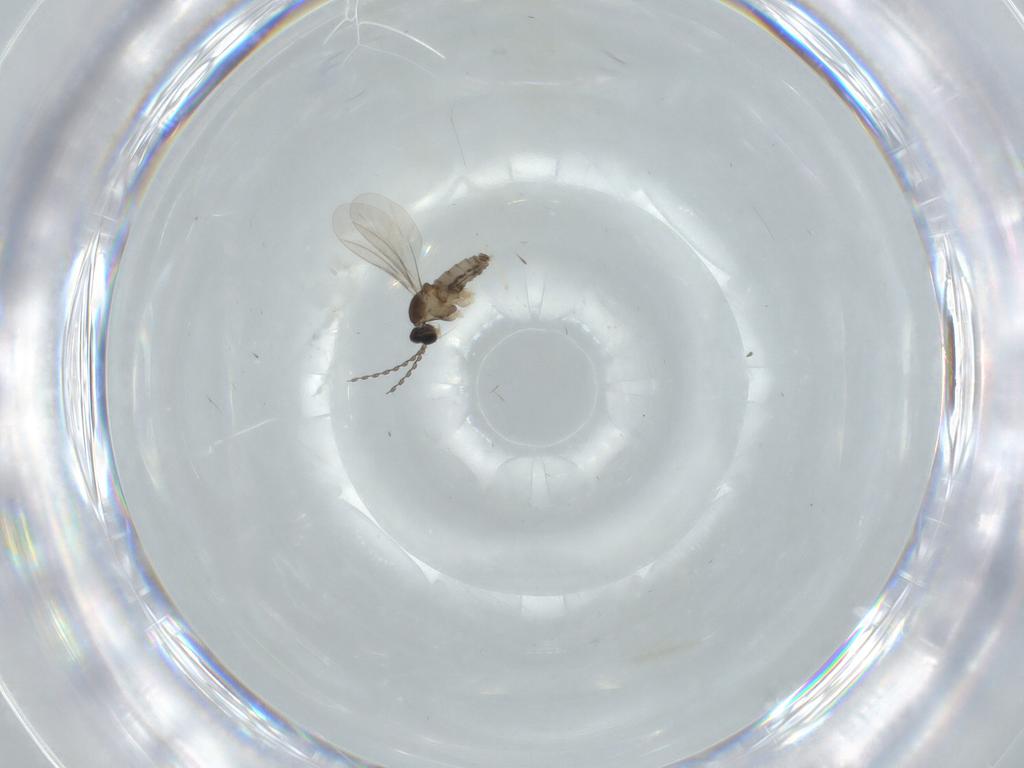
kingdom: Animalia
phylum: Arthropoda
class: Insecta
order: Diptera
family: Cecidomyiidae
